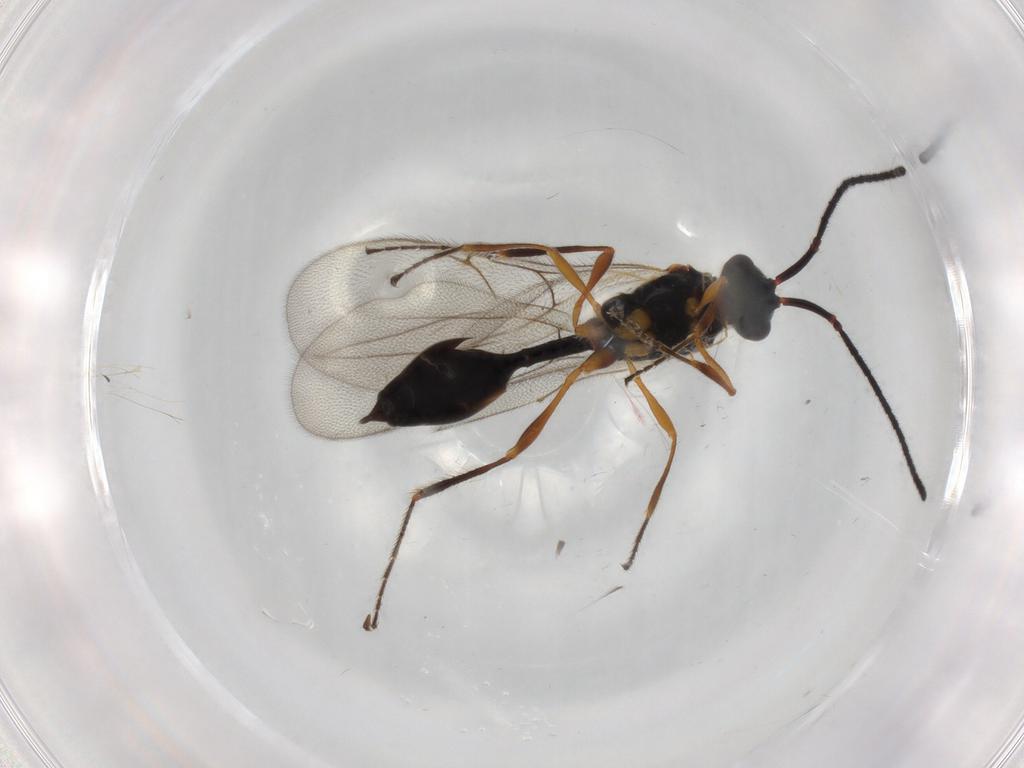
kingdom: Animalia
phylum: Arthropoda
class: Insecta
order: Hymenoptera
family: Diapriidae
